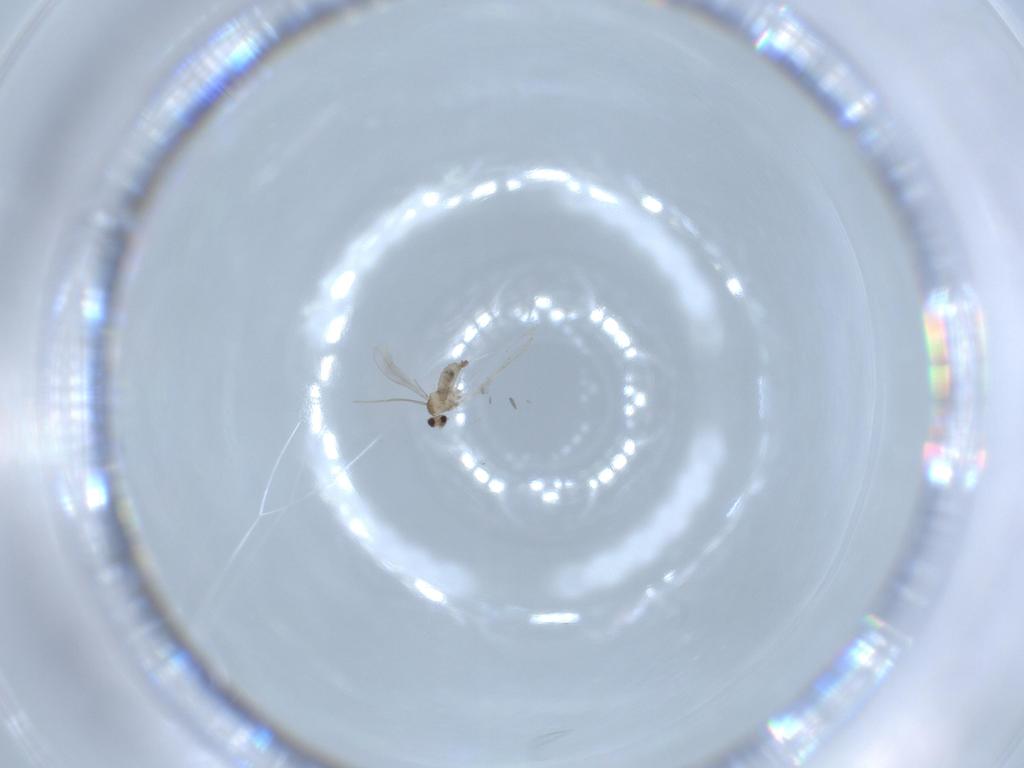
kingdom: Animalia
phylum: Arthropoda
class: Insecta
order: Diptera
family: Cecidomyiidae
